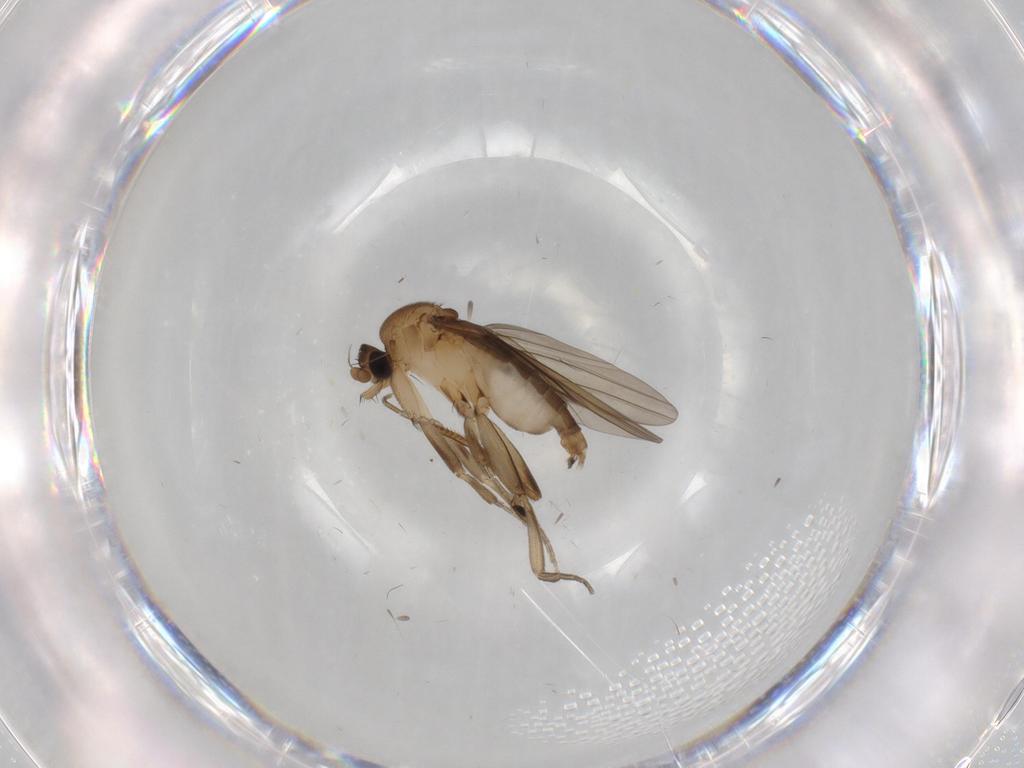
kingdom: Animalia
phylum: Arthropoda
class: Insecta
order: Diptera
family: Phoridae
